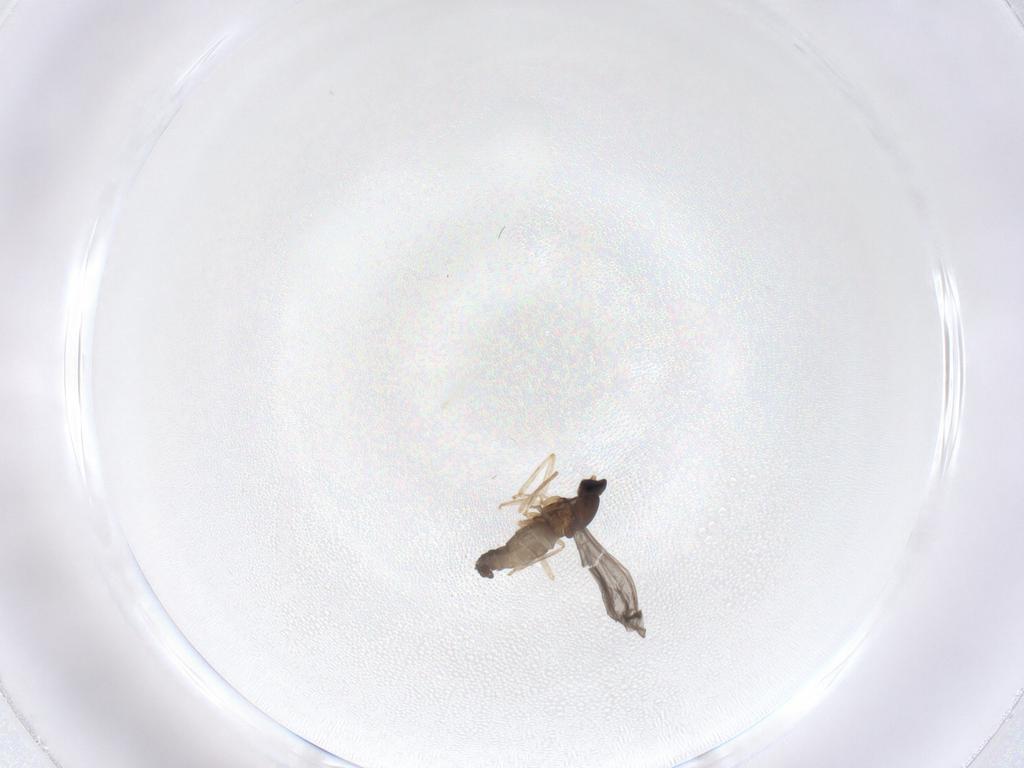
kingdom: Animalia
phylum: Arthropoda
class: Insecta
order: Diptera
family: Cecidomyiidae
